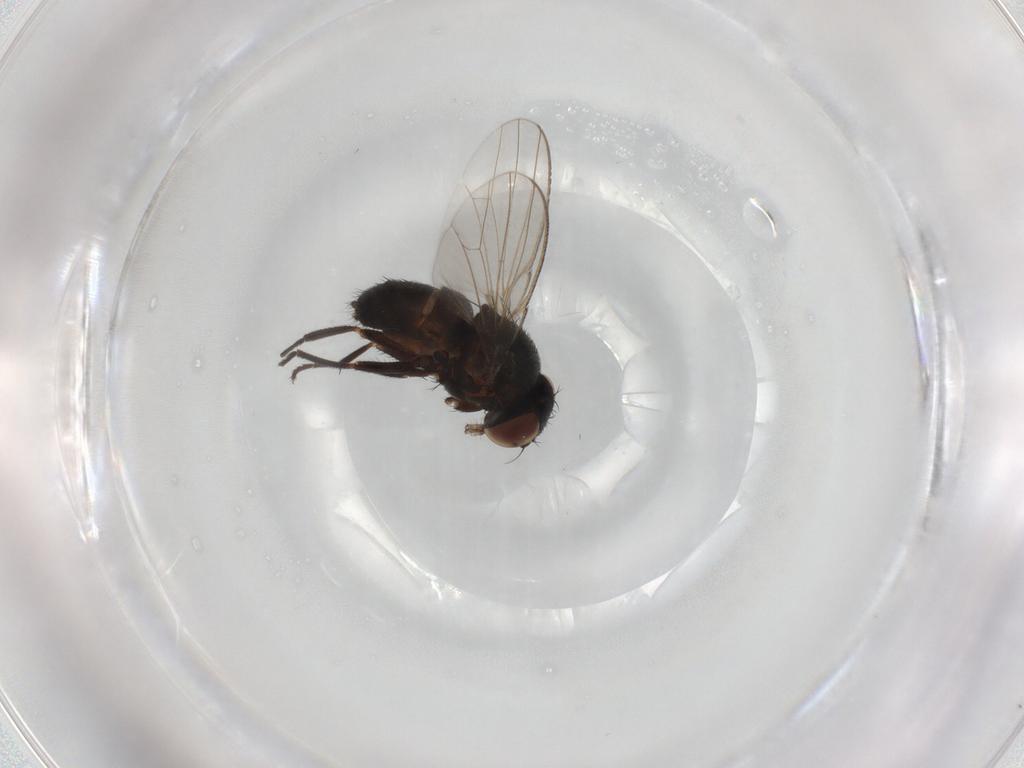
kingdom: Animalia
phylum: Arthropoda
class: Insecta
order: Diptera
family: Milichiidae
